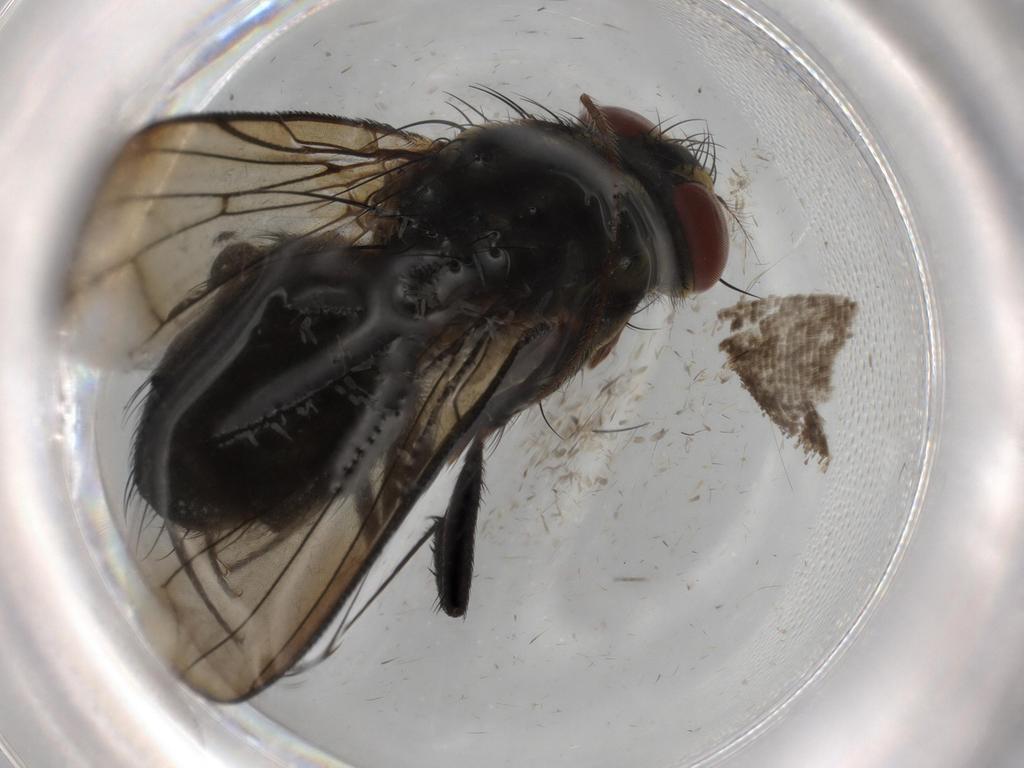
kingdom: Animalia
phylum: Arthropoda
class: Insecta
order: Diptera
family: Sarcophagidae
